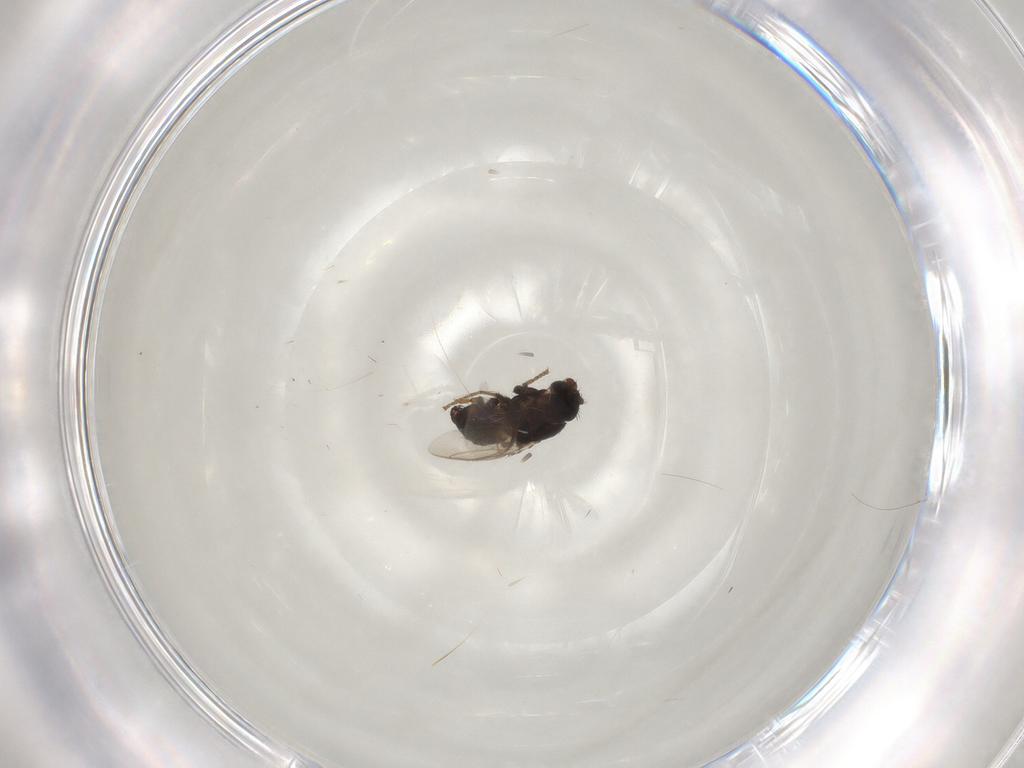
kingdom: Animalia
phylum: Arthropoda
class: Insecta
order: Diptera
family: Sphaeroceridae
